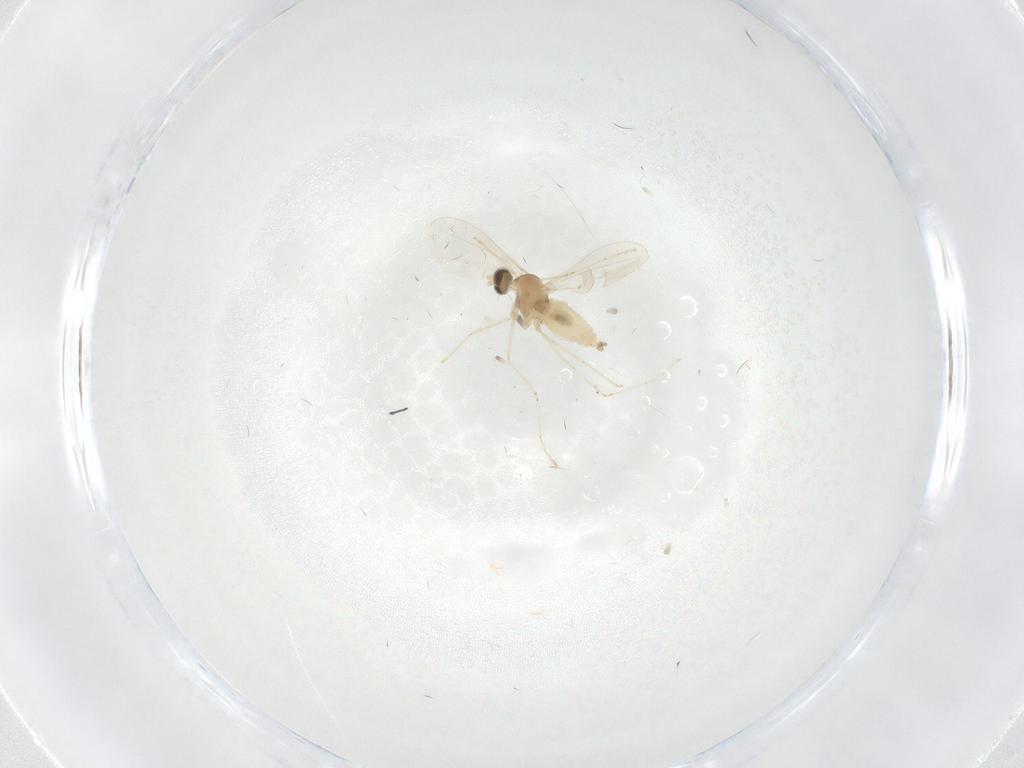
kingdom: Animalia
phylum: Arthropoda
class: Insecta
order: Diptera
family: Cecidomyiidae
